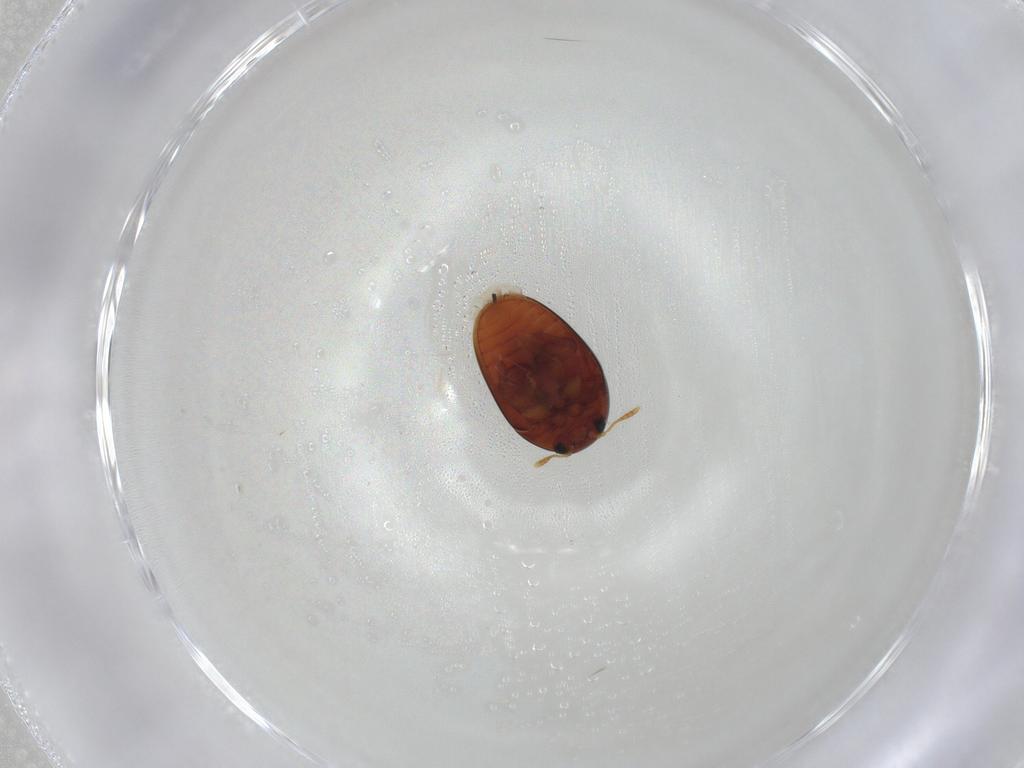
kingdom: Animalia
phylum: Arthropoda
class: Insecta
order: Coleoptera
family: Phalacridae
